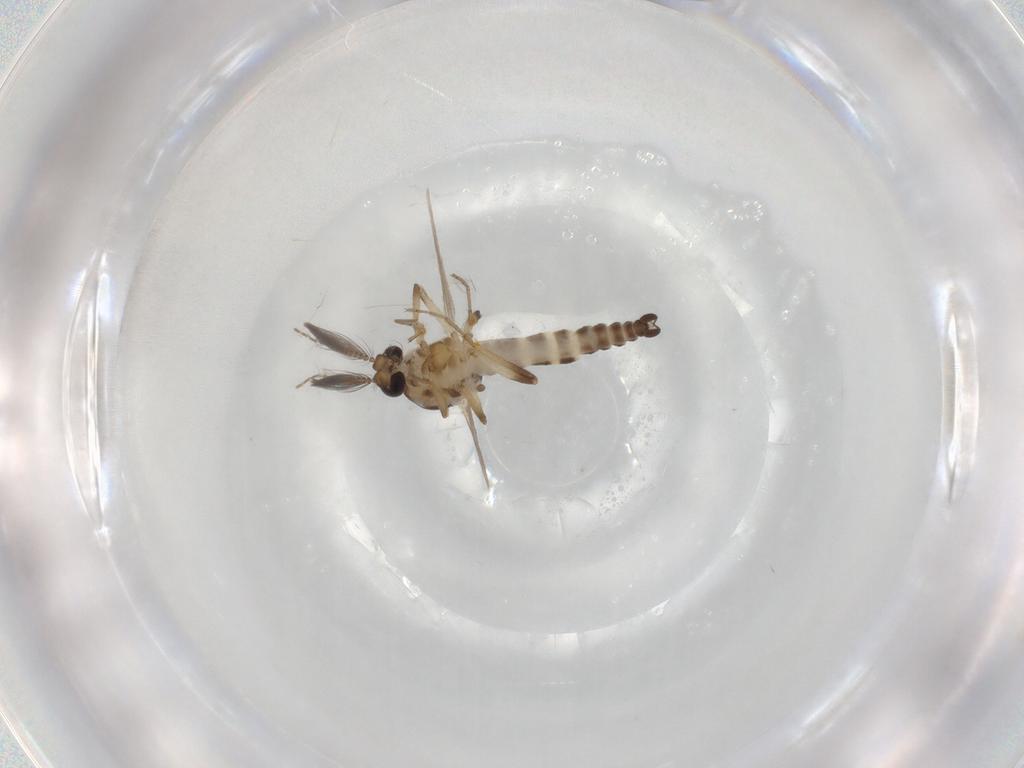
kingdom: Animalia
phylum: Arthropoda
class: Insecta
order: Diptera
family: Ceratopogonidae
